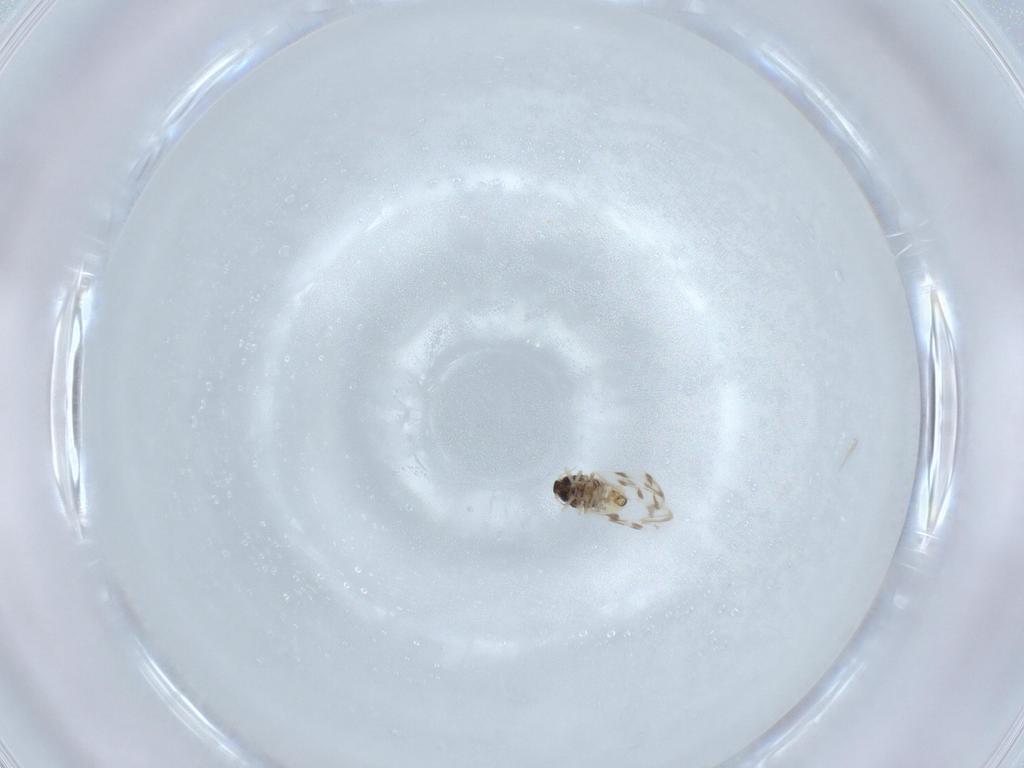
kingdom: Animalia
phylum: Arthropoda
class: Insecta
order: Hemiptera
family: Aleyrodidae
